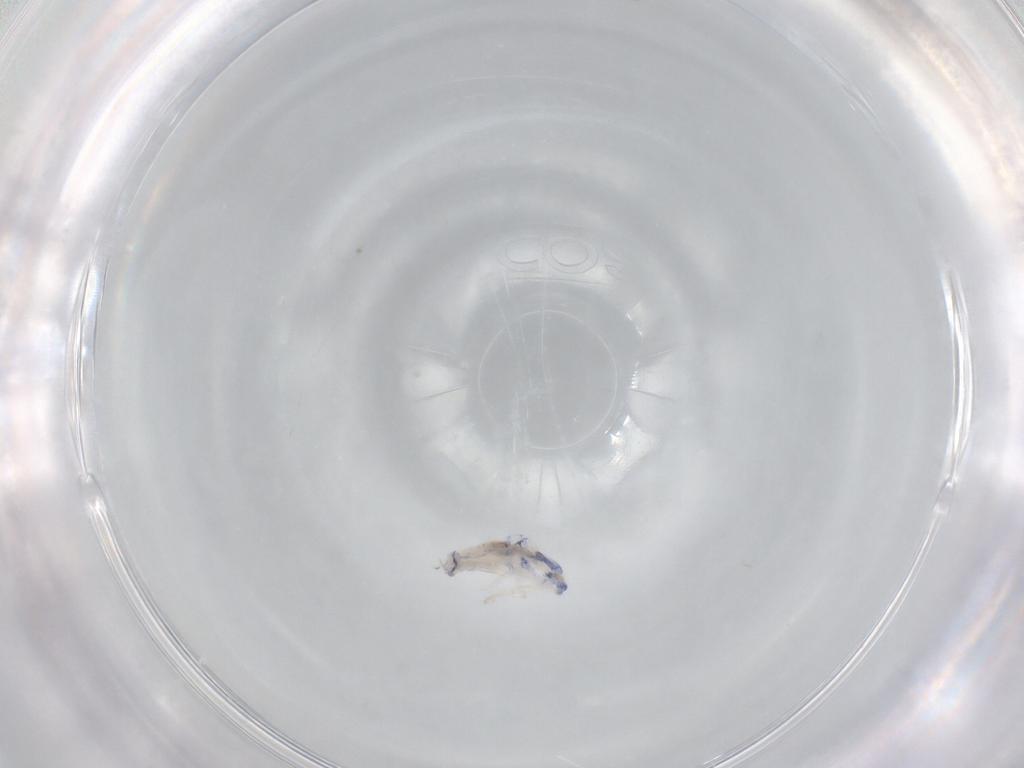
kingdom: Animalia
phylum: Arthropoda
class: Collembola
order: Entomobryomorpha
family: Entomobryidae
